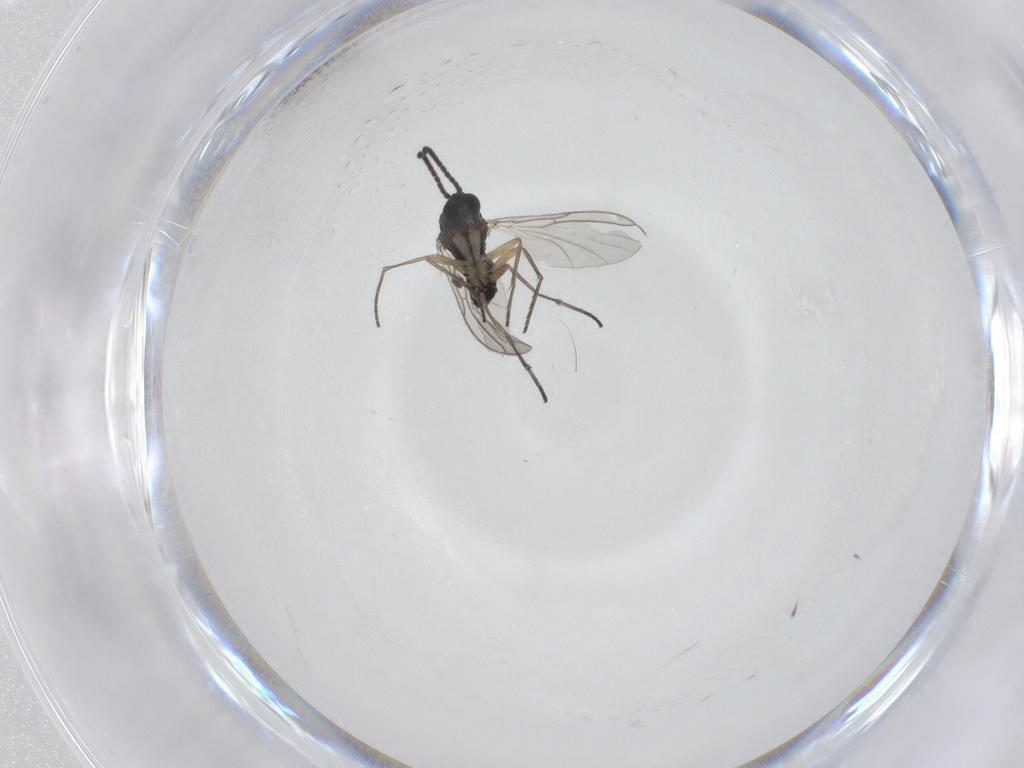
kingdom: Animalia
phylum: Arthropoda
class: Insecta
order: Diptera
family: Sciaridae
